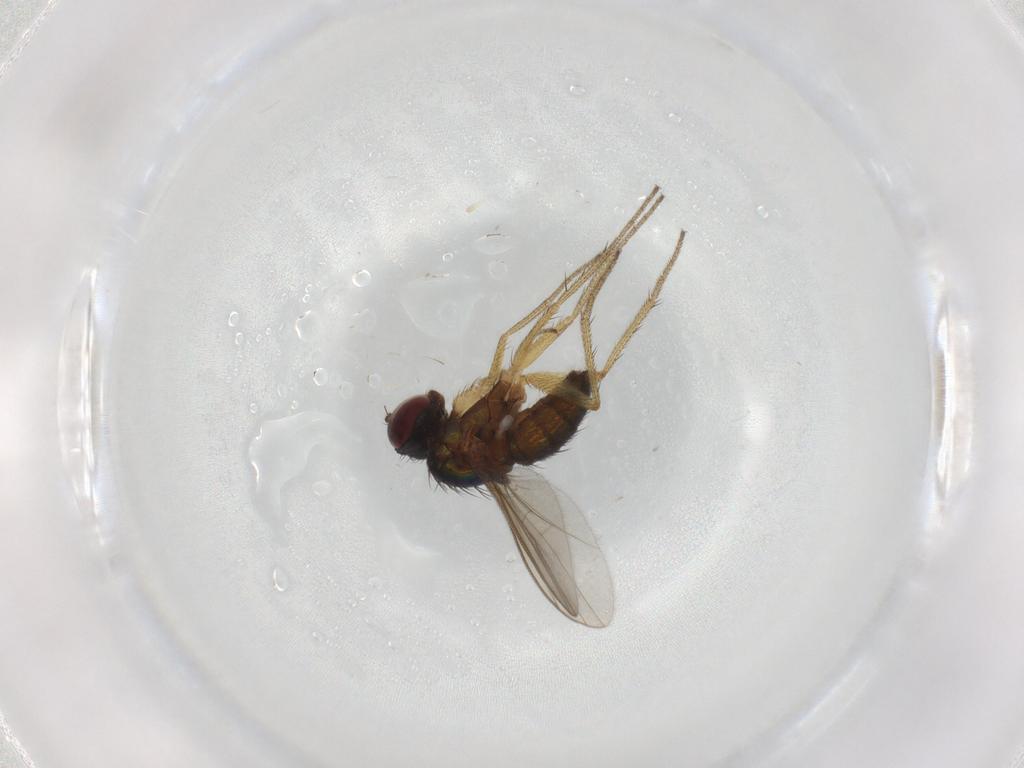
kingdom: Animalia
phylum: Arthropoda
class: Insecta
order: Diptera
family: Dolichopodidae
